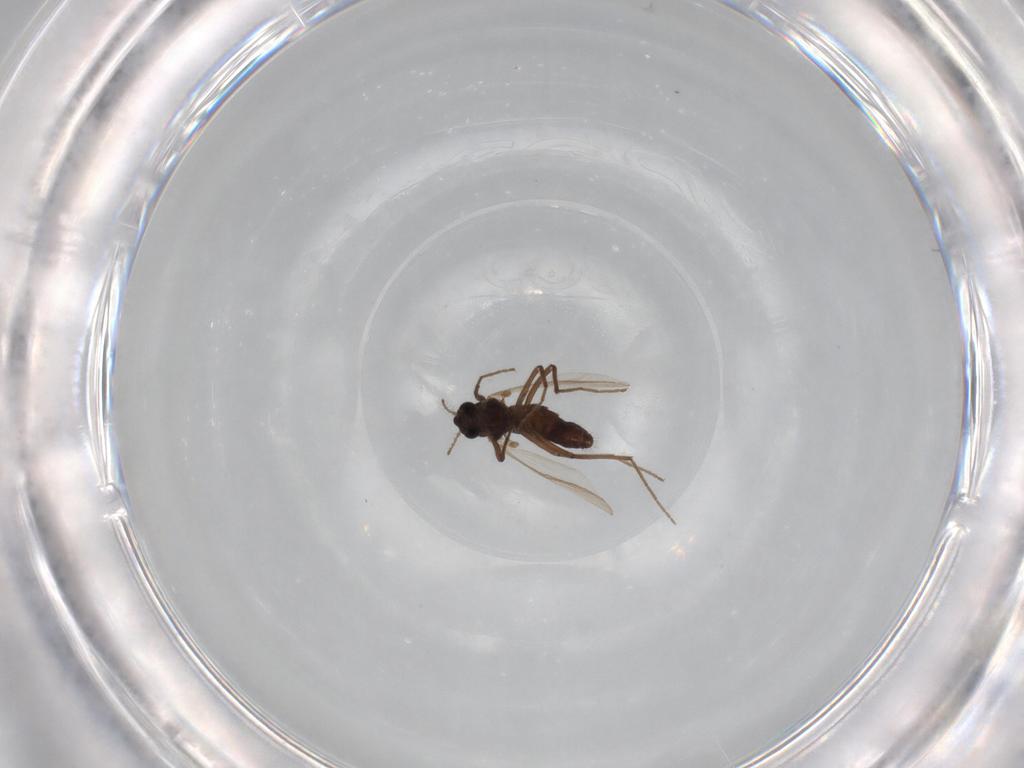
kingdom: Animalia
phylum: Arthropoda
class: Insecta
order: Diptera
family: Chironomidae
